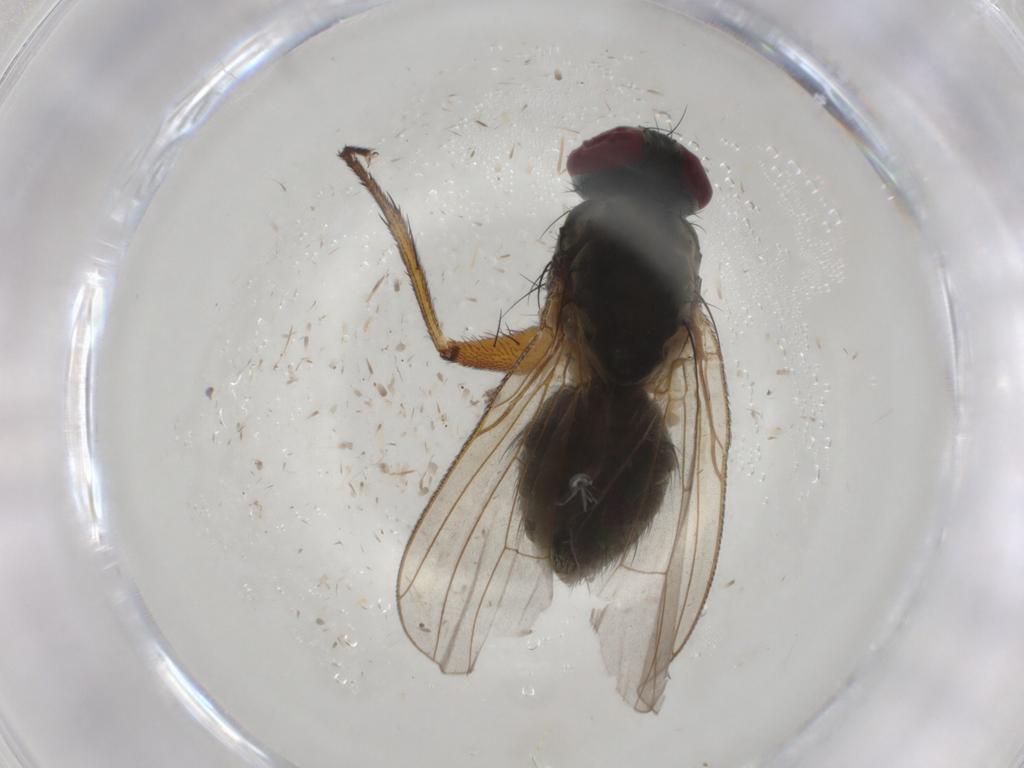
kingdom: Animalia
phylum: Arthropoda
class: Insecta
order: Diptera
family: Muscidae
